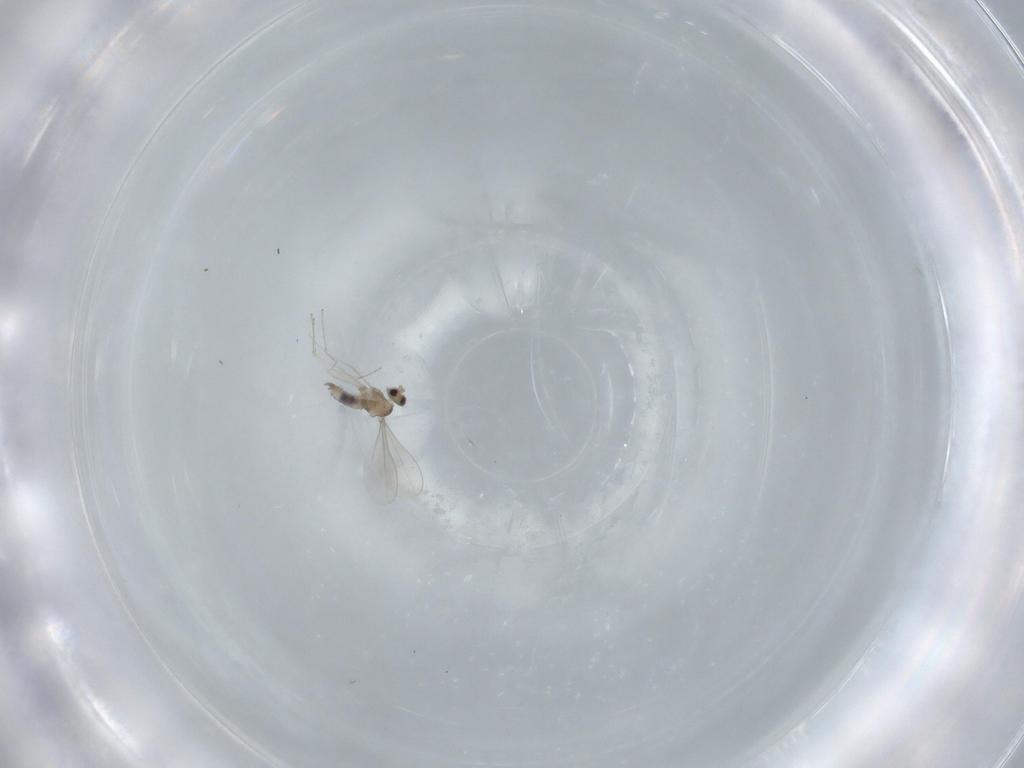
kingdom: Animalia
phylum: Arthropoda
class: Insecta
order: Diptera
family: Cecidomyiidae
